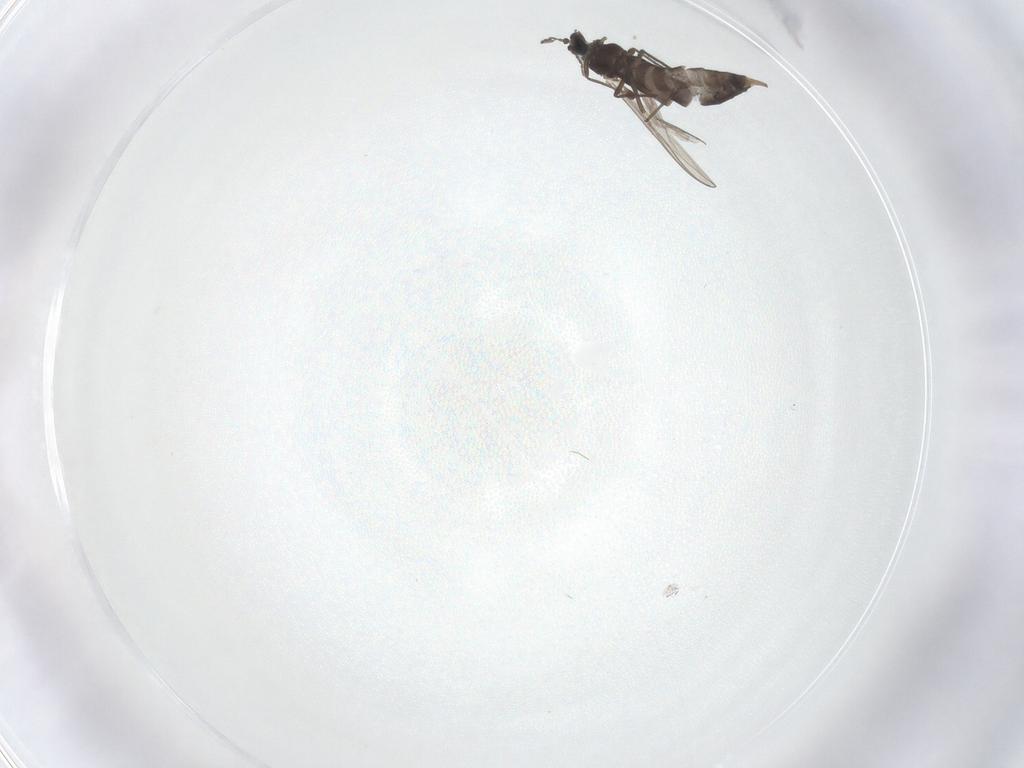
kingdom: Animalia
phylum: Arthropoda
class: Insecta
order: Diptera
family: Chironomidae
